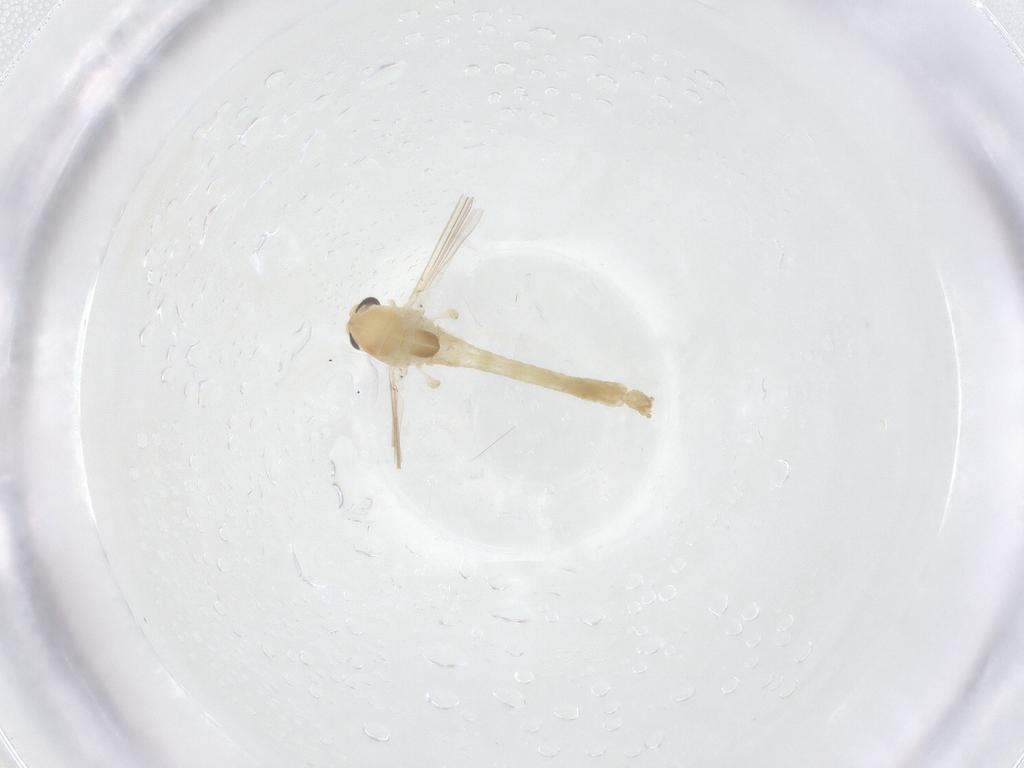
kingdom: Animalia
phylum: Arthropoda
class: Insecta
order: Diptera
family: Chironomidae
